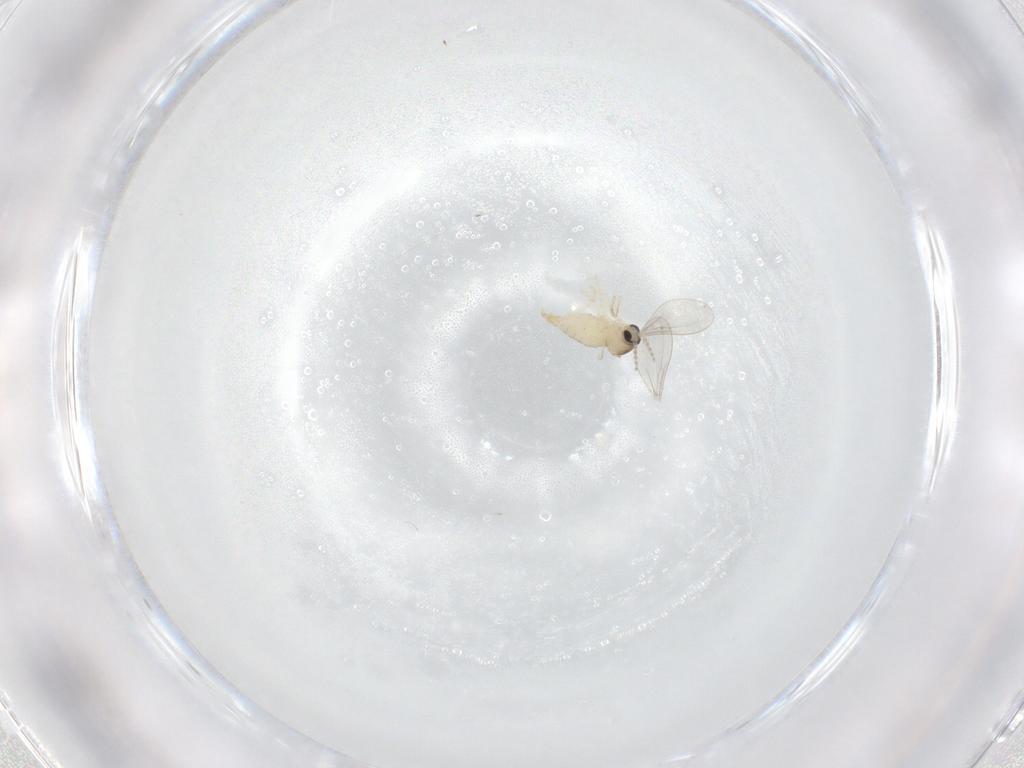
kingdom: Animalia
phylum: Arthropoda
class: Insecta
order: Diptera
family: Cecidomyiidae
